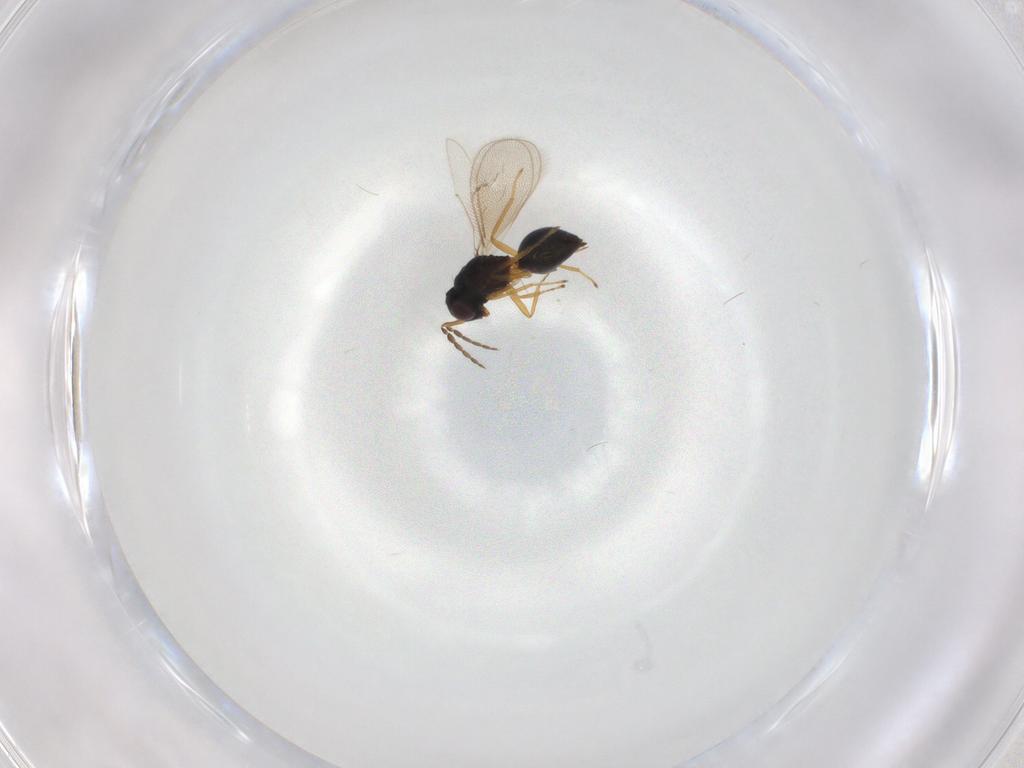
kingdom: Animalia
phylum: Arthropoda
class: Insecta
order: Hymenoptera
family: Eulophidae
